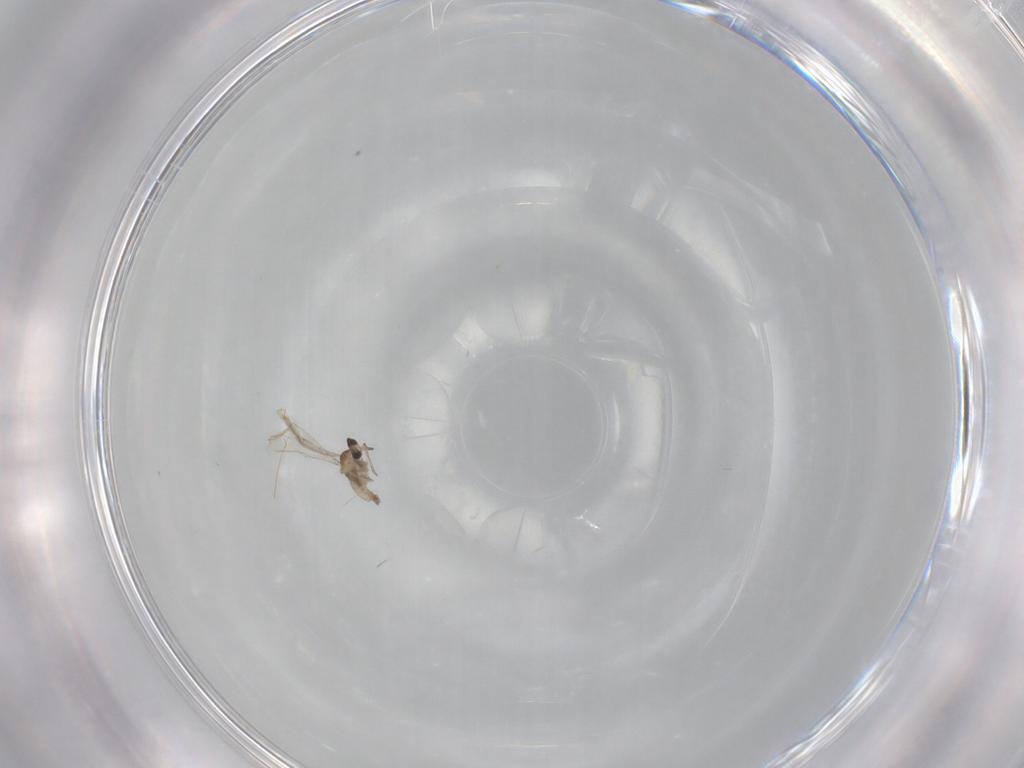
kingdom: Animalia
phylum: Arthropoda
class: Insecta
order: Diptera
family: Cecidomyiidae
